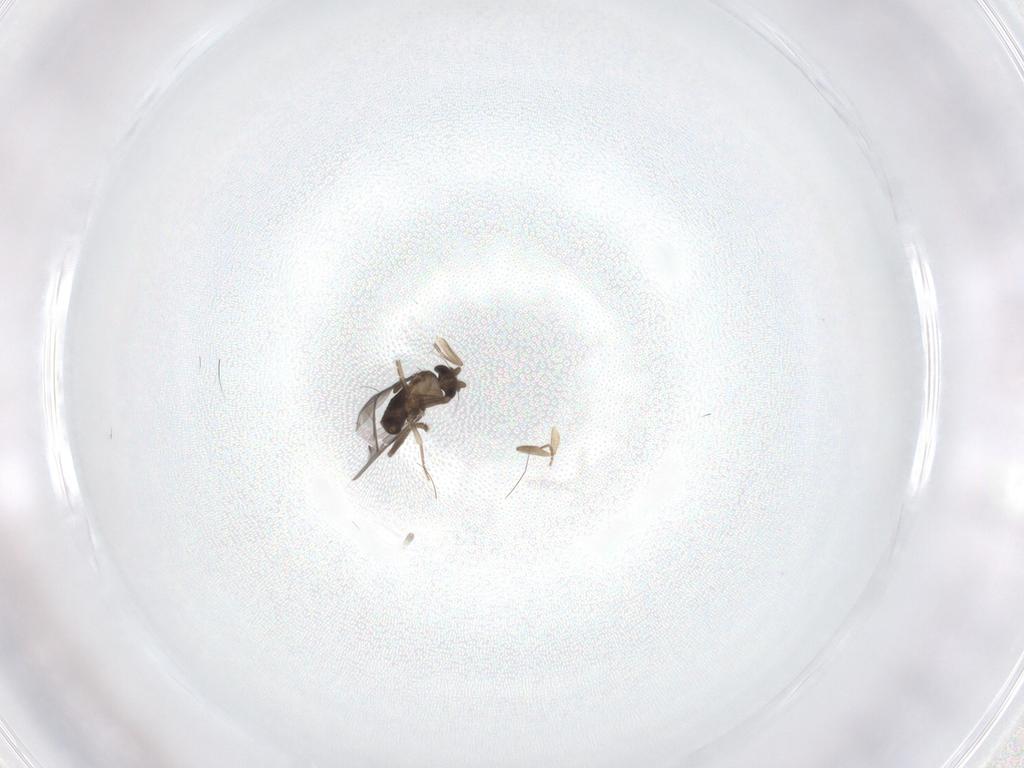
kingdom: Animalia
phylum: Arthropoda
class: Insecta
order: Diptera
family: Cecidomyiidae
